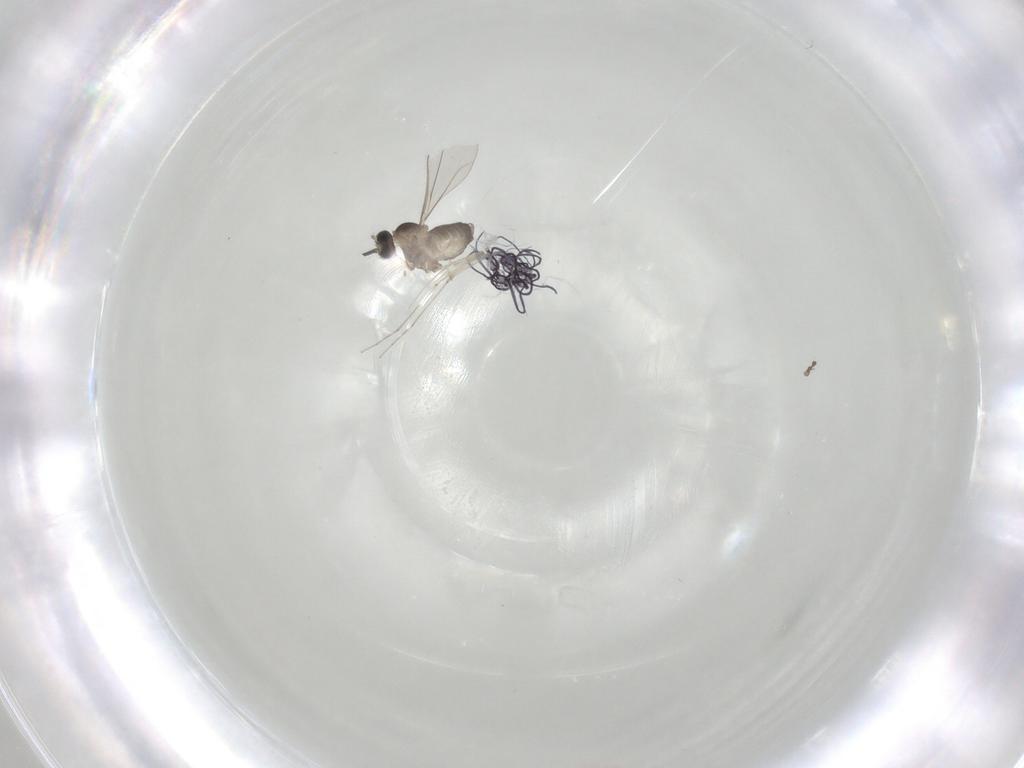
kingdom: Animalia
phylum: Arthropoda
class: Insecta
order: Diptera
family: Cecidomyiidae
